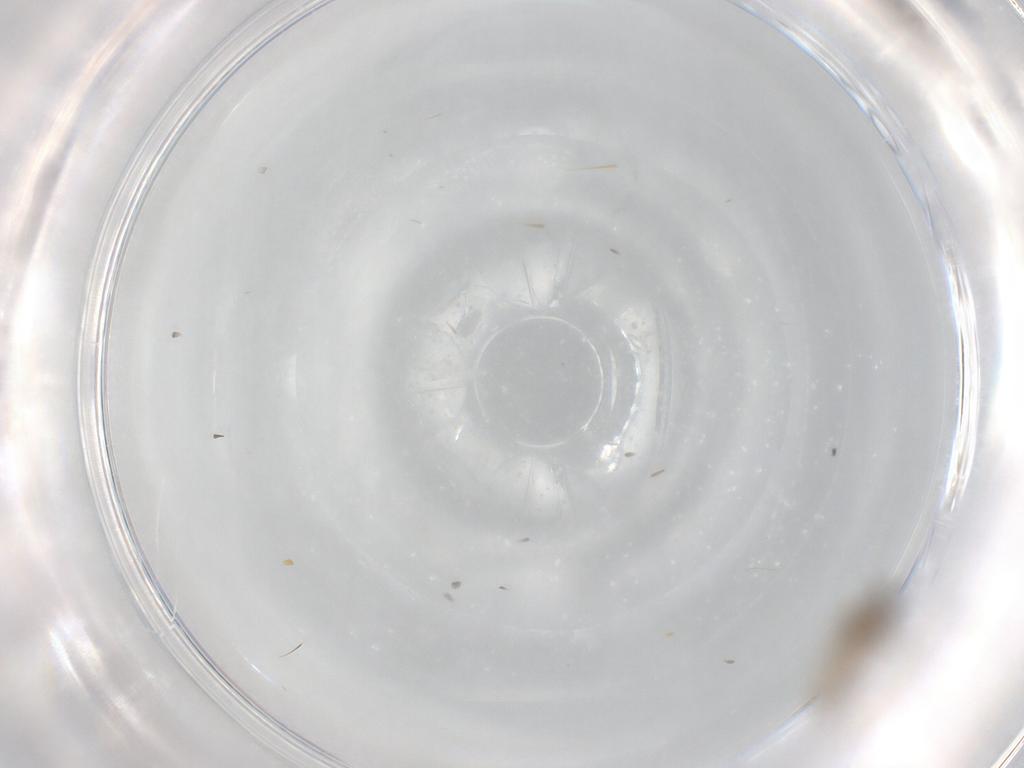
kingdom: Animalia
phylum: Arthropoda
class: Insecta
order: Diptera
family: Cecidomyiidae
